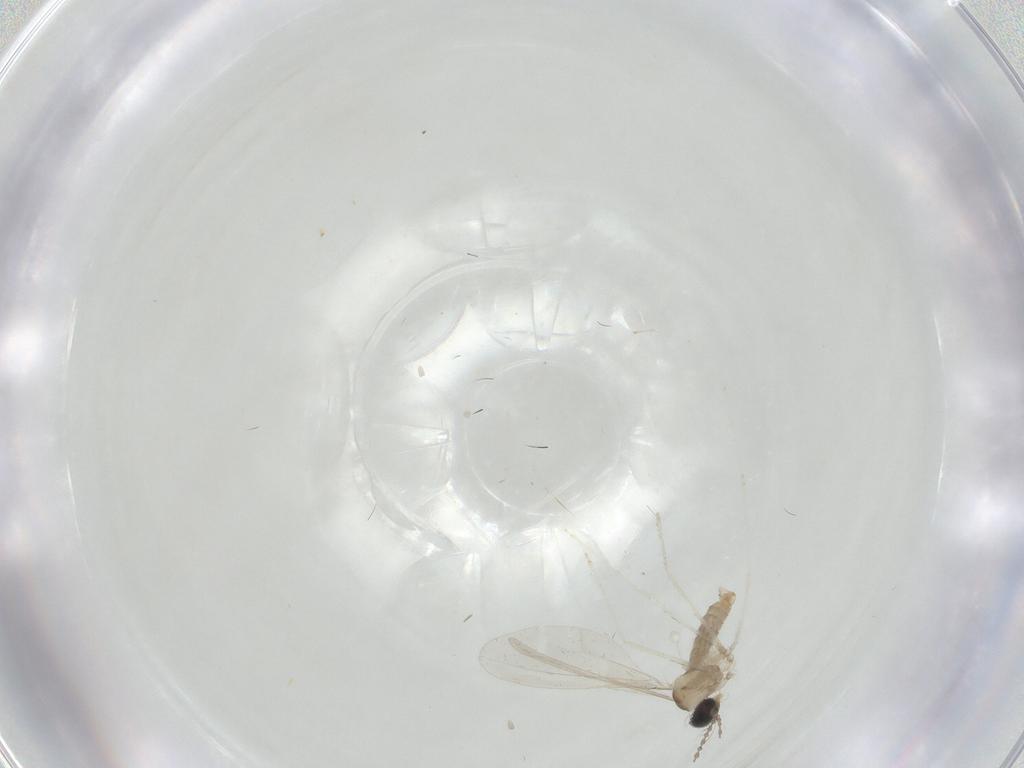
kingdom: Animalia
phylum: Arthropoda
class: Insecta
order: Diptera
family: Cecidomyiidae
